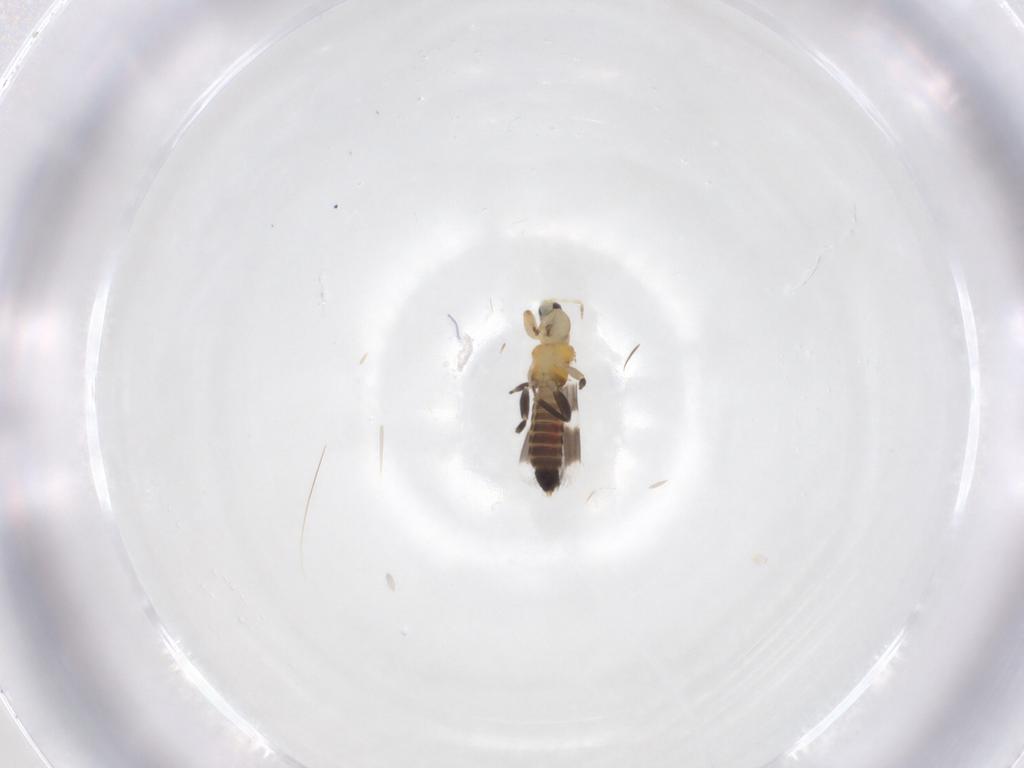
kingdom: Animalia
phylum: Arthropoda
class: Insecta
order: Thysanoptera
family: Aeolothripidae
